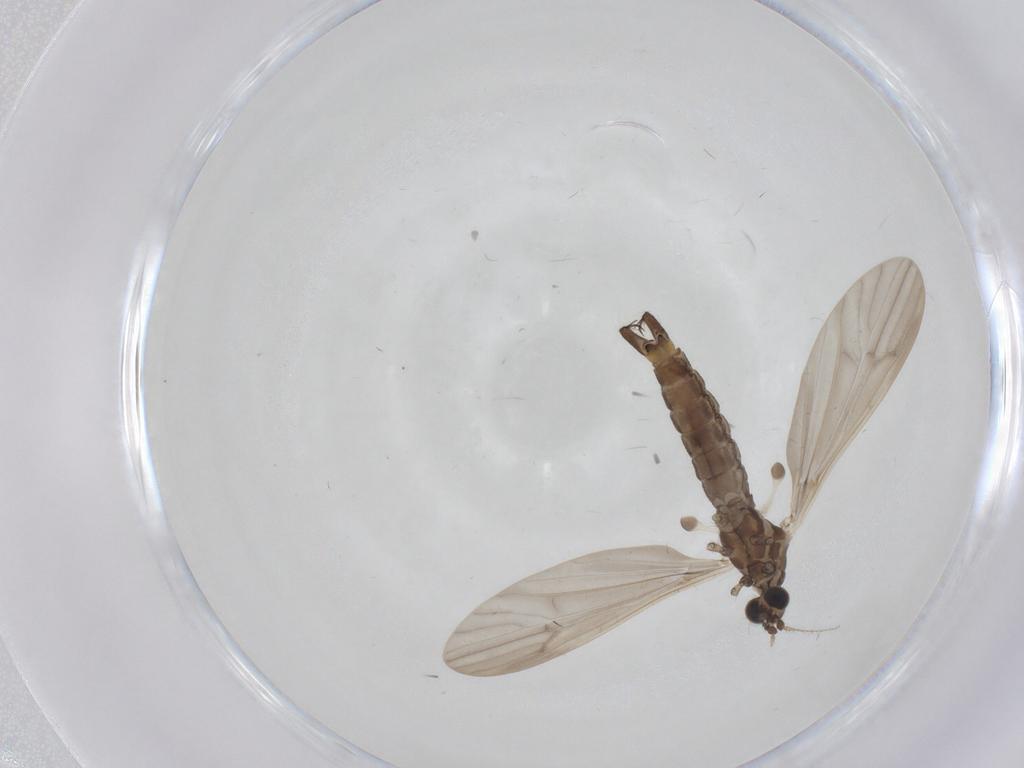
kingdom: Animalia
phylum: Arthropoda
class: Insecta
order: Diptera
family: Limoniidae
